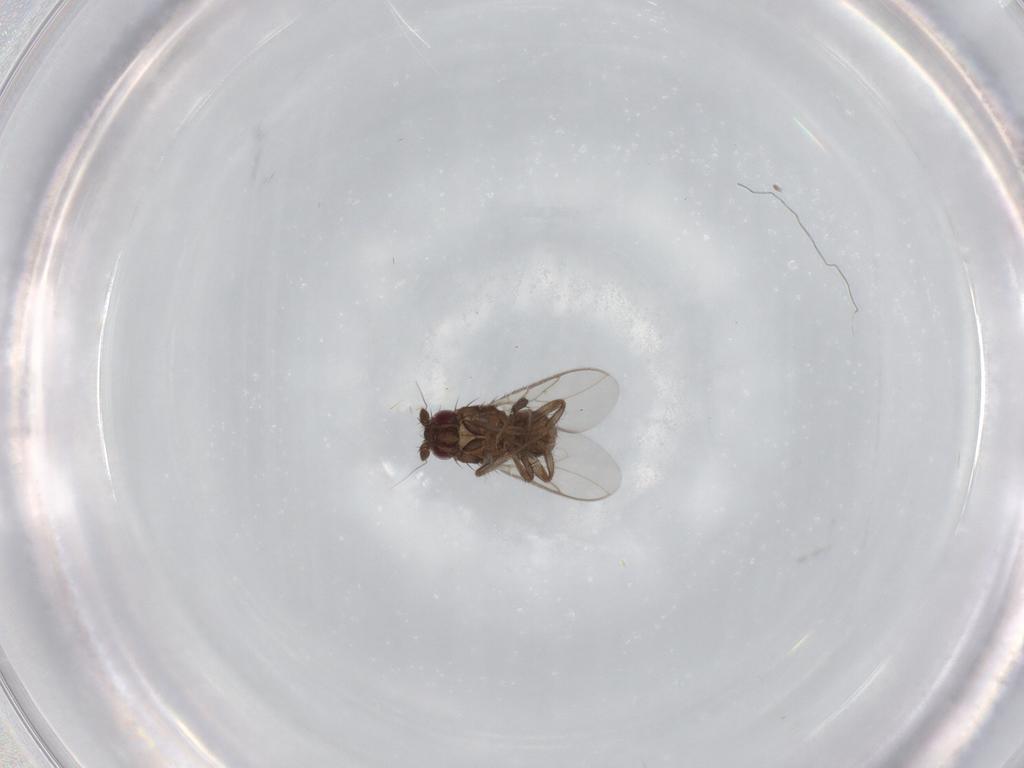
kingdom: Animalia
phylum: Arthropoda
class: Insecta
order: Diptera
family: Sphaeroceridae
